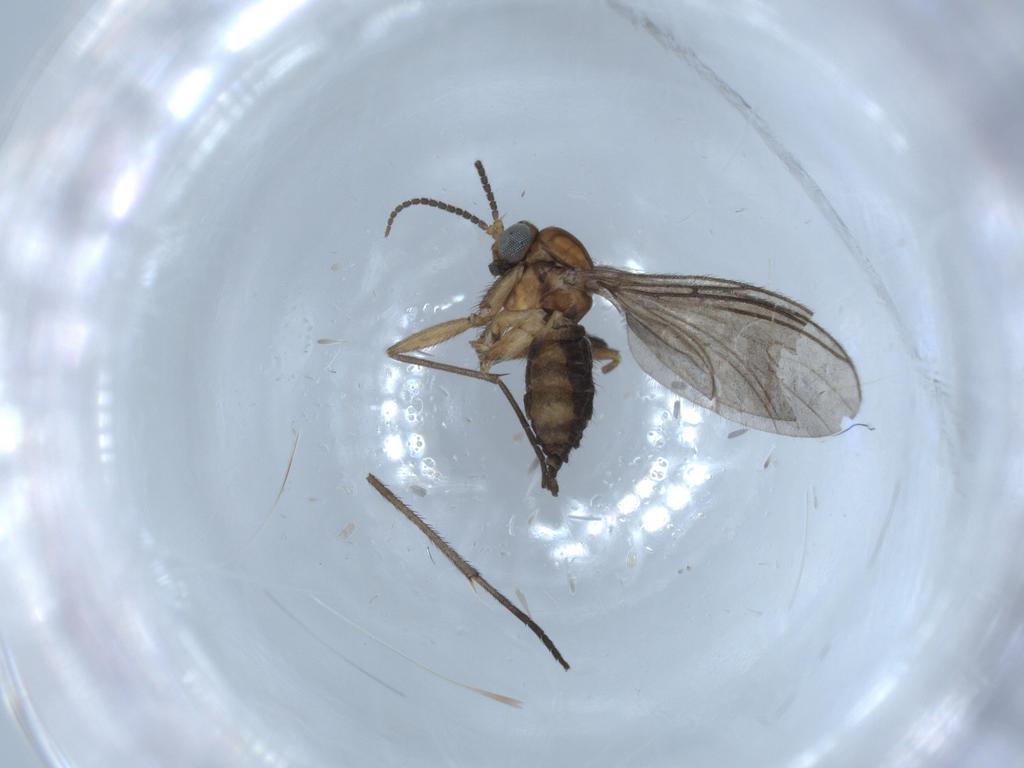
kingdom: Animalia
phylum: Arthropoda
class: Insecta
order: Diptera
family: Sciaridae
